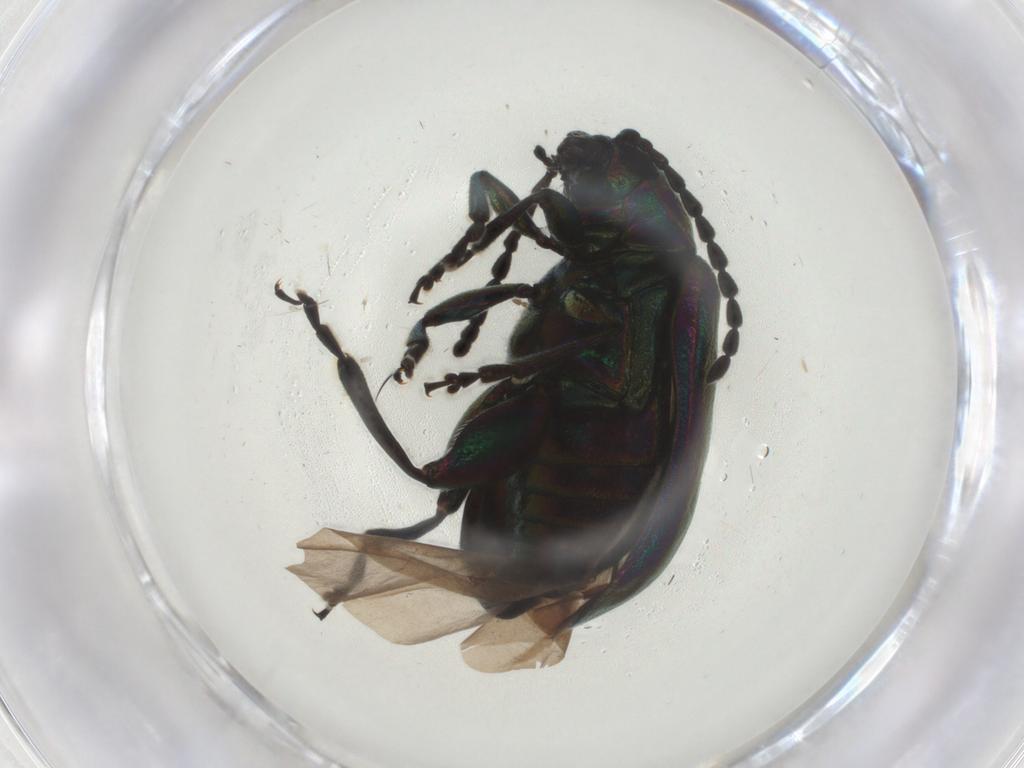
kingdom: Animalia
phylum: Arthropoda
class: Insecta
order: Coleoptera
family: Chrysomelidae
